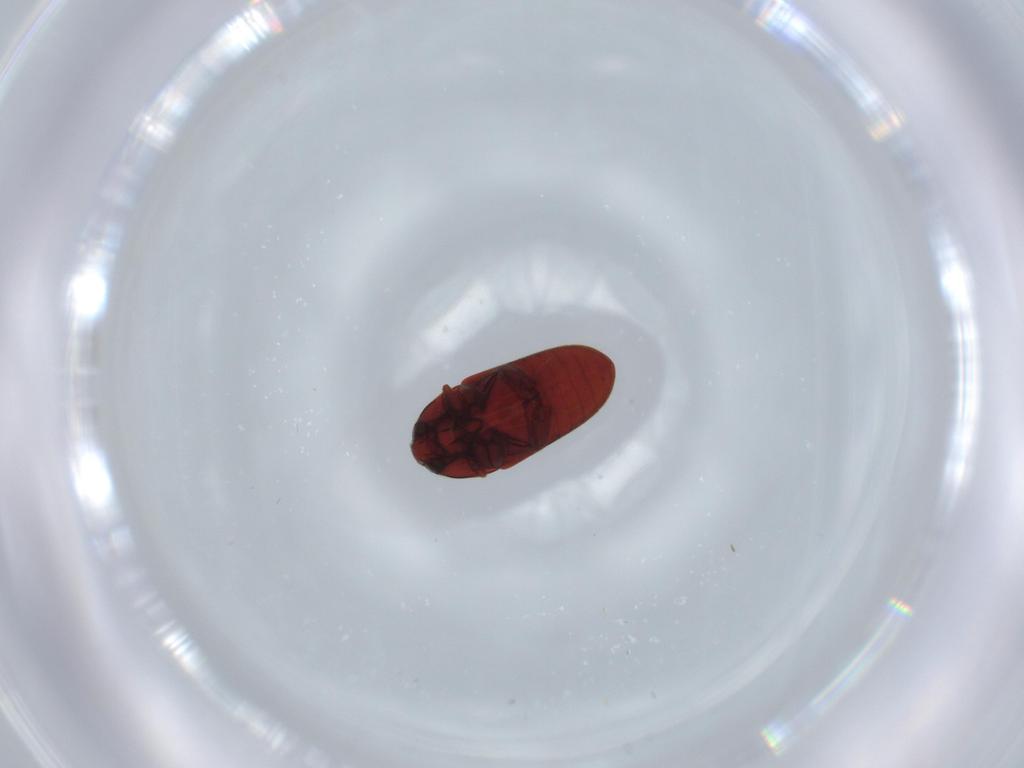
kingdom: Animalia
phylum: Arthropoda
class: Insecta
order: Coleoptera
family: Throscidae
